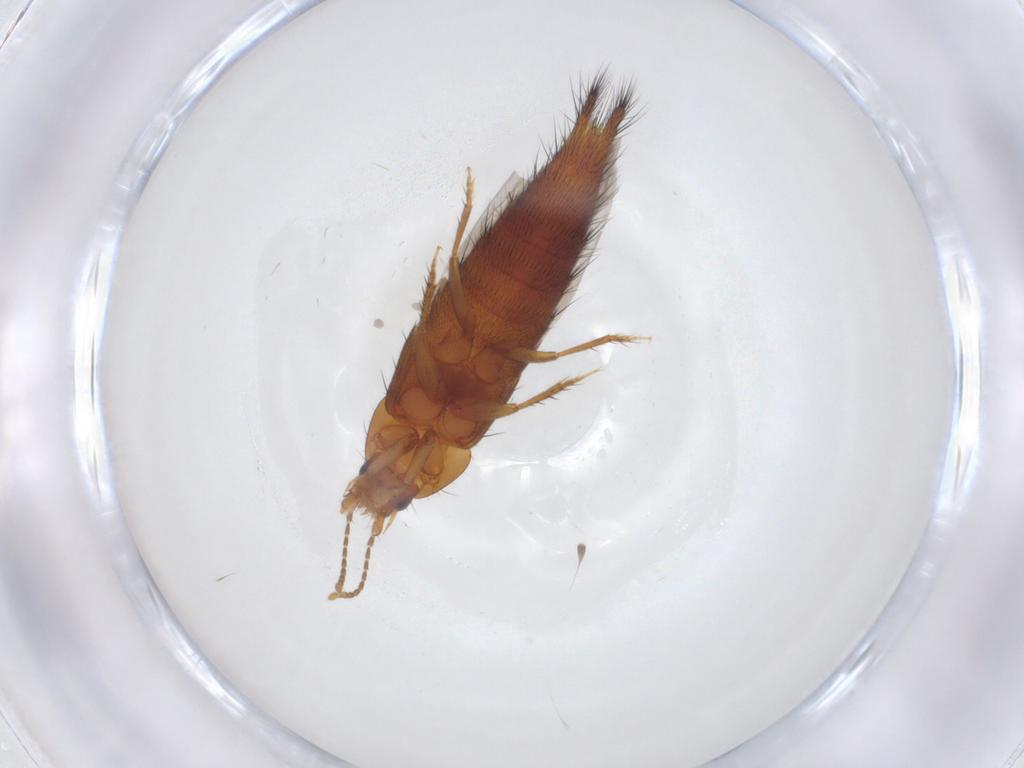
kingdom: Animalia
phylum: Arthropoda
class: Insecta
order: Coleoptera
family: Staphylinidae
